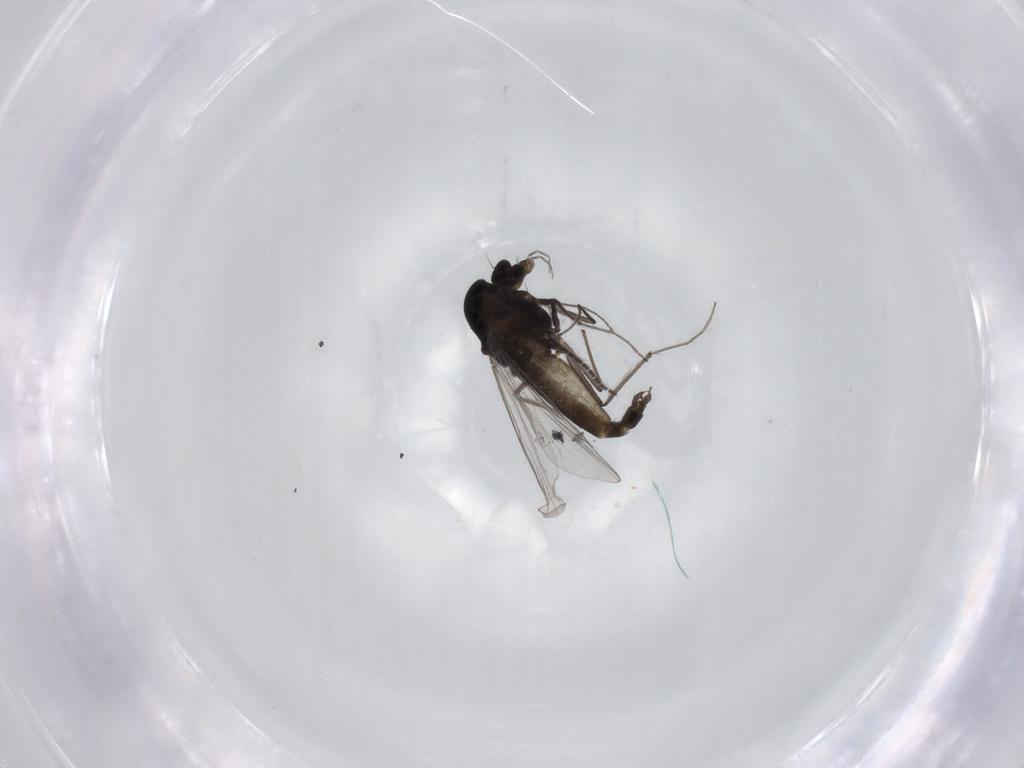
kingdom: Animalia
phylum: Arthropoda
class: Insecta
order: Diptera
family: Chironomidae
